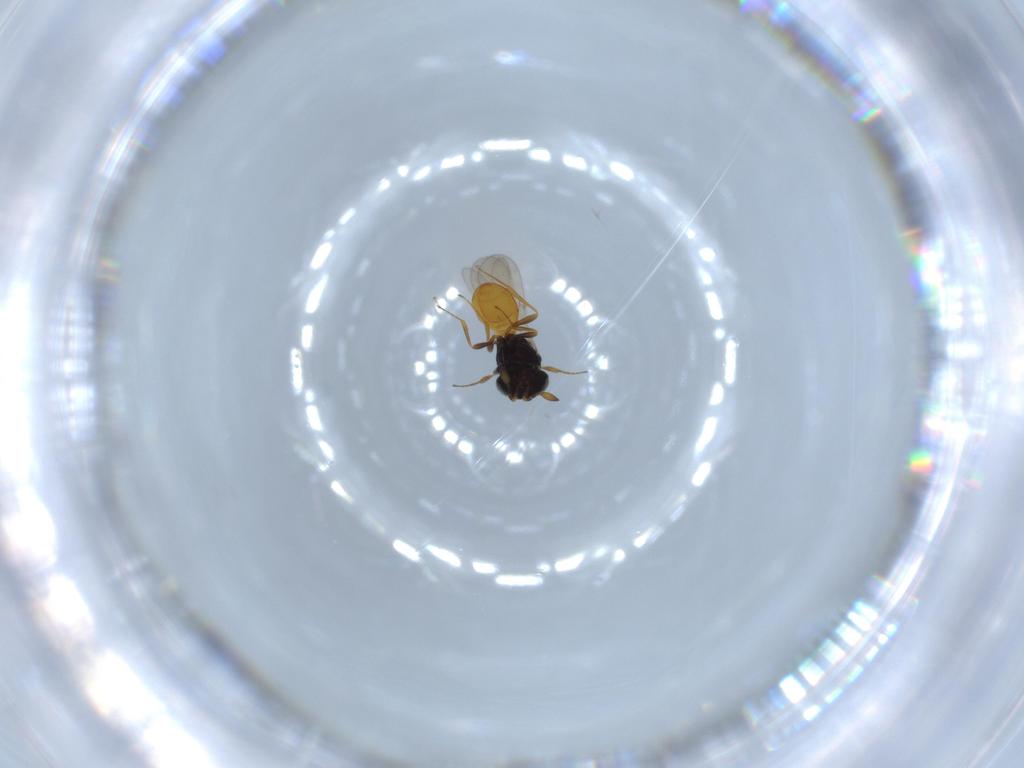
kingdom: Animalia
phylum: Arthropoda
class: Insecta
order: Hymenoptera
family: Scelionidae
